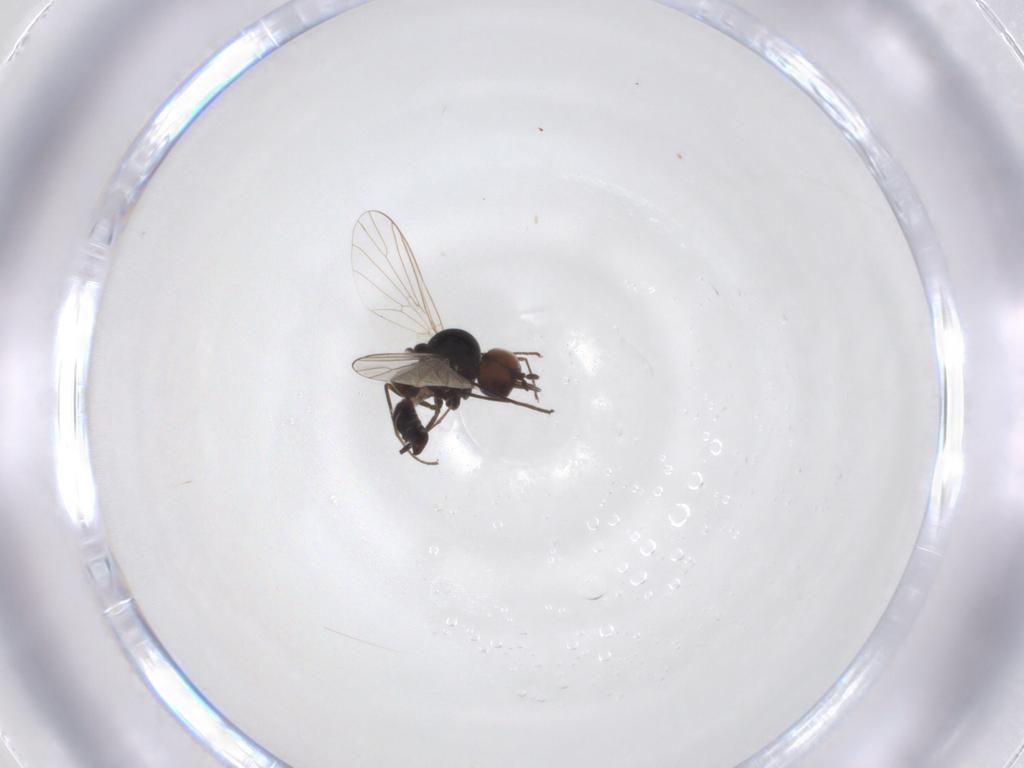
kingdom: Animalia
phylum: Arthropoda
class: Insecta
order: Diptera
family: Bombyliidae
